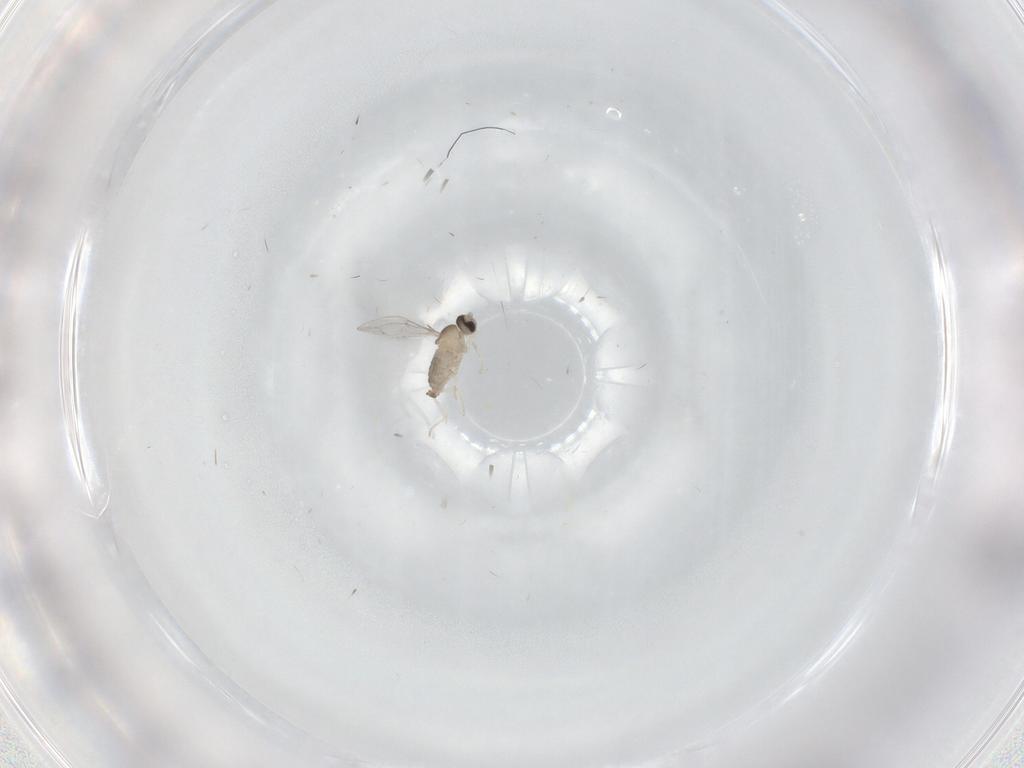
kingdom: Animalia
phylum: Arthropoda
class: Insecta
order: Diptera
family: Cecidomyiidae
